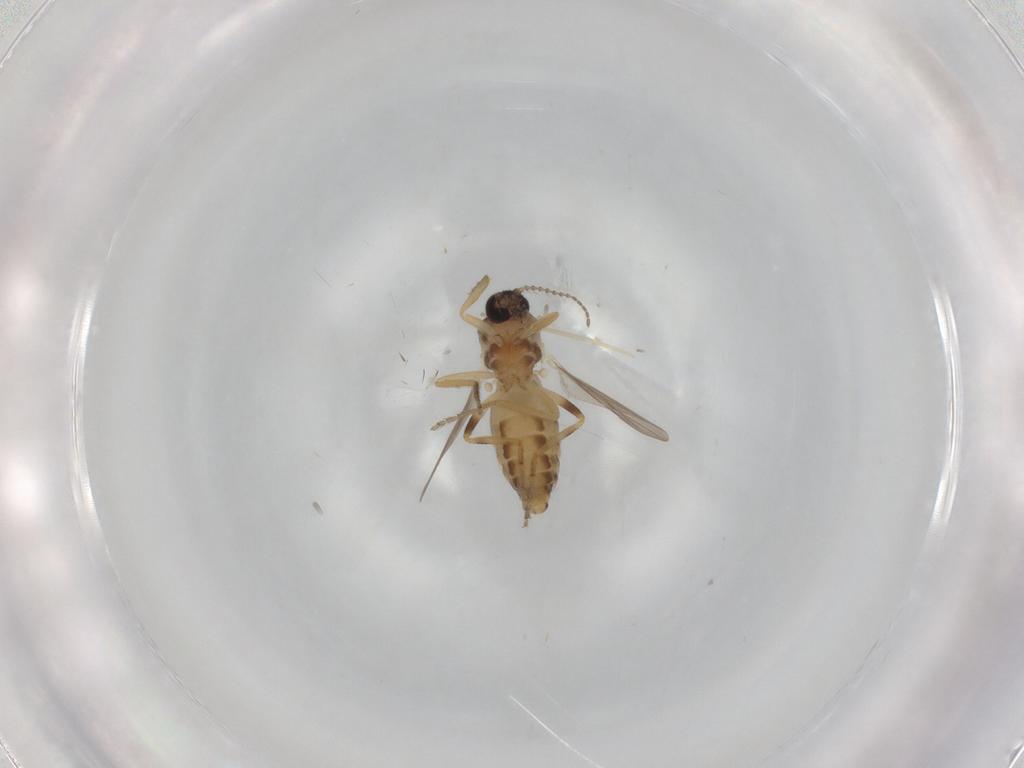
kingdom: Animalia
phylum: Arthropoda
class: Insecta
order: Diptera
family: Ceratopogonidae
